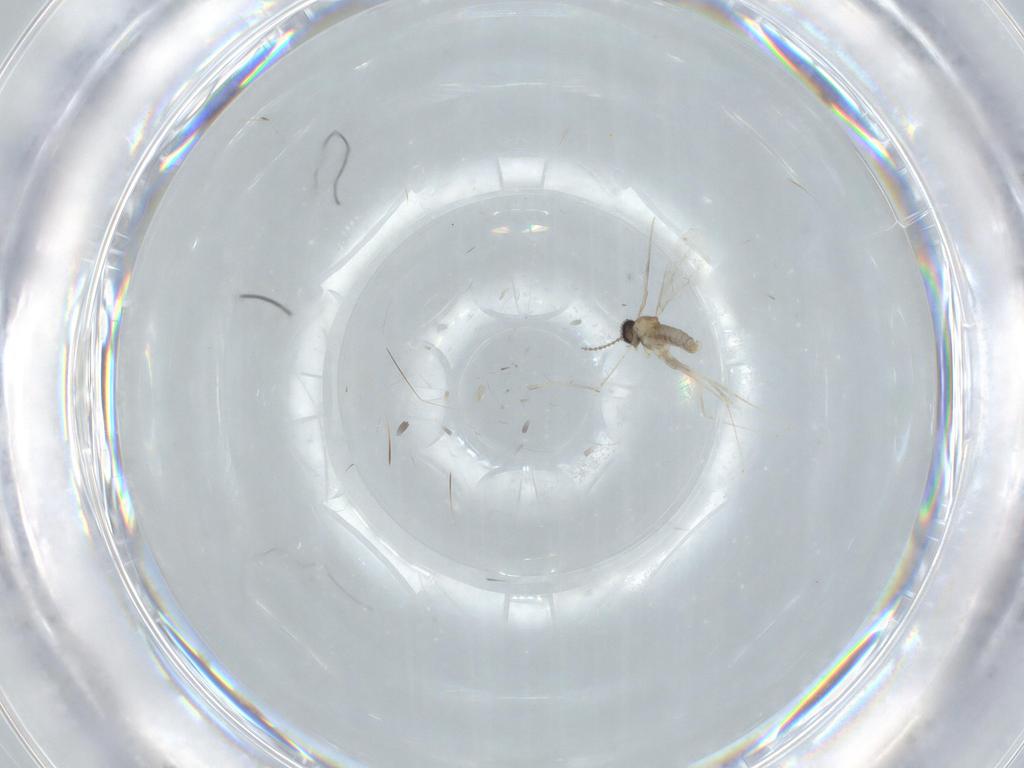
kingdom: Animalia
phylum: Arthropoda
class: Insecta
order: Diptera
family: Cecidomyiidae
